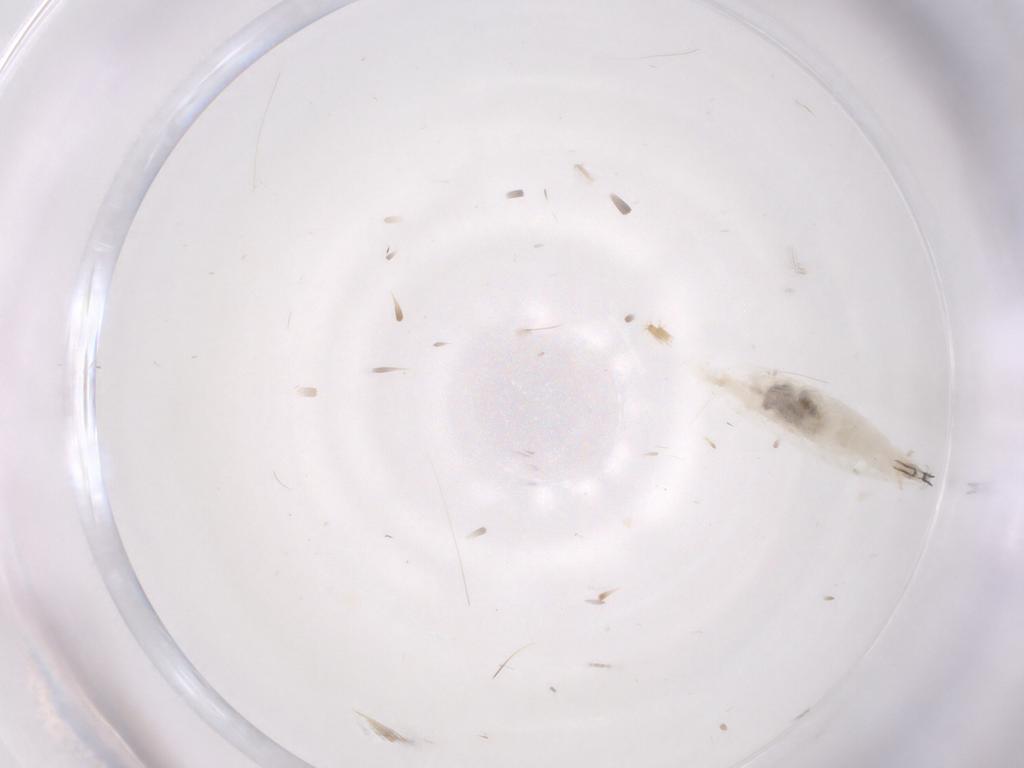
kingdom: Animalia
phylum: Arthropoda
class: Insecta
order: Diptera
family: Drosophilidae
